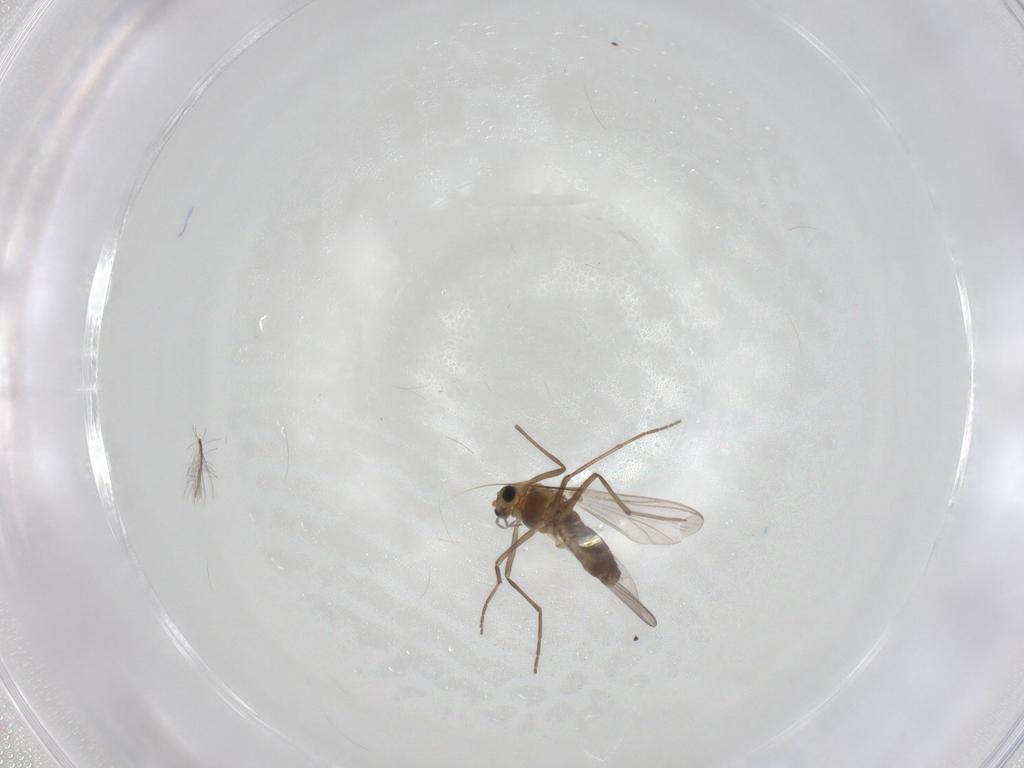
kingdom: Animalia
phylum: Arthropoda
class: Insecta
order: Diptera
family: Chironomidae
